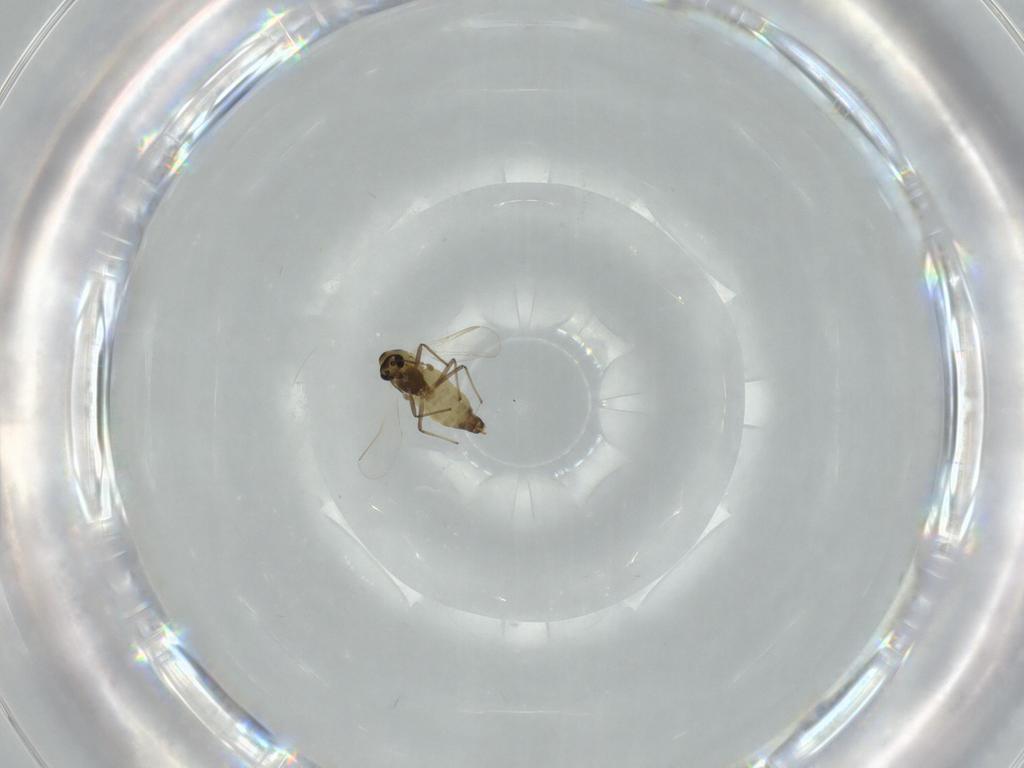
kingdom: Animalia
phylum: Arthropoda
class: Insecta
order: Diptera
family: Chironomidae
